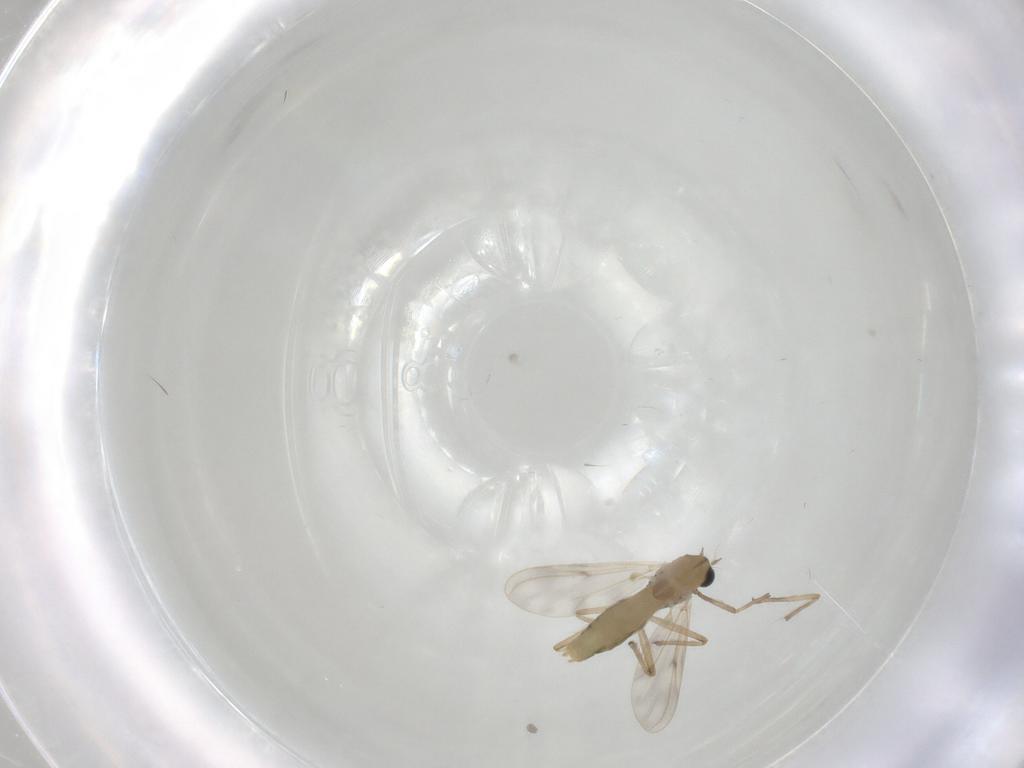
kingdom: Animalia
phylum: Arthropoda
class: Insecta
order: Diptera
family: Chironomidae
